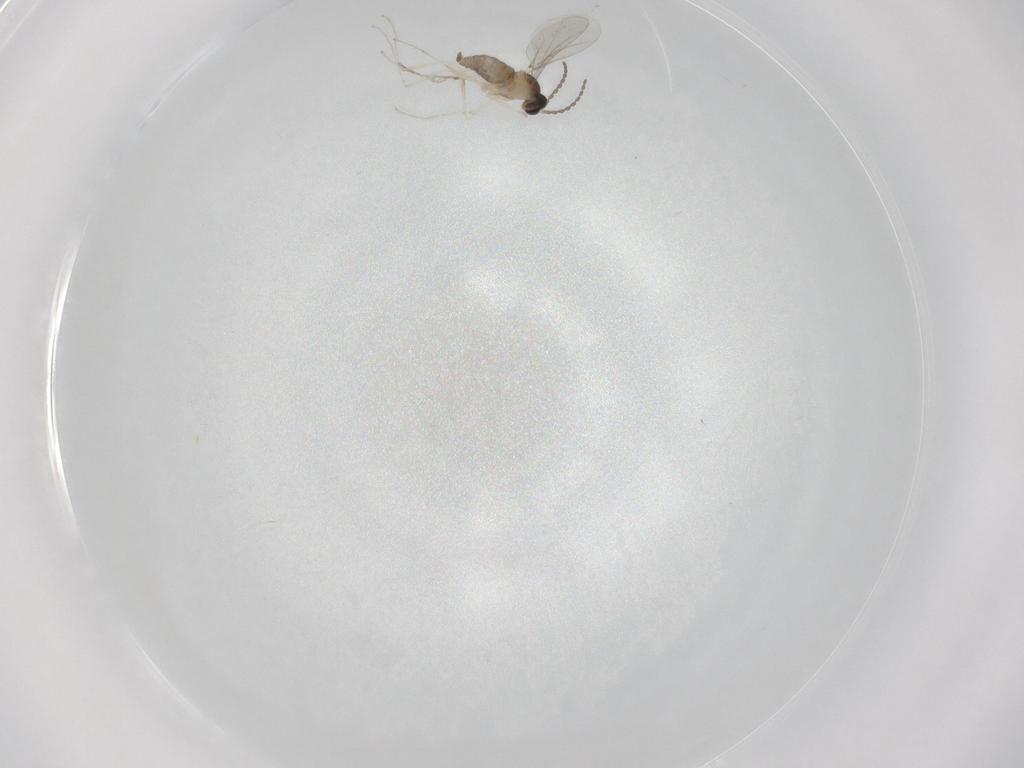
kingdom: Animalia
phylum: Arthropoda
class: Insecta
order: Diptera
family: Cecidomyiidae
